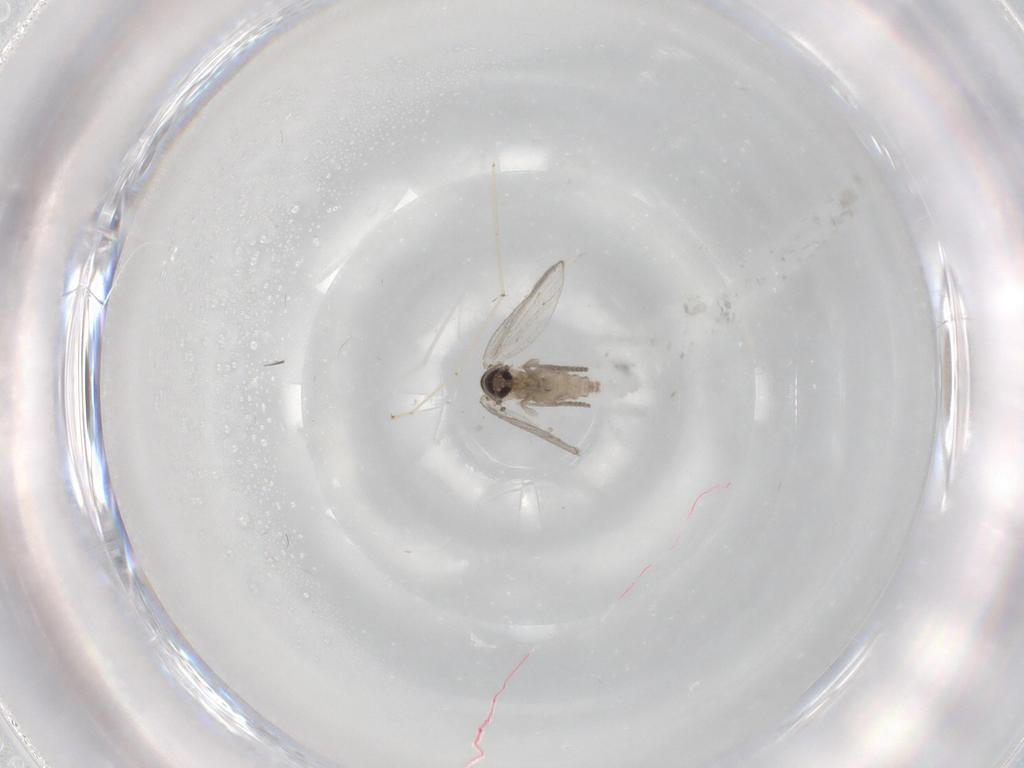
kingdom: Animalia
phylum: Arthropoda
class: Insecta
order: Diptera
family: Psychodidae
